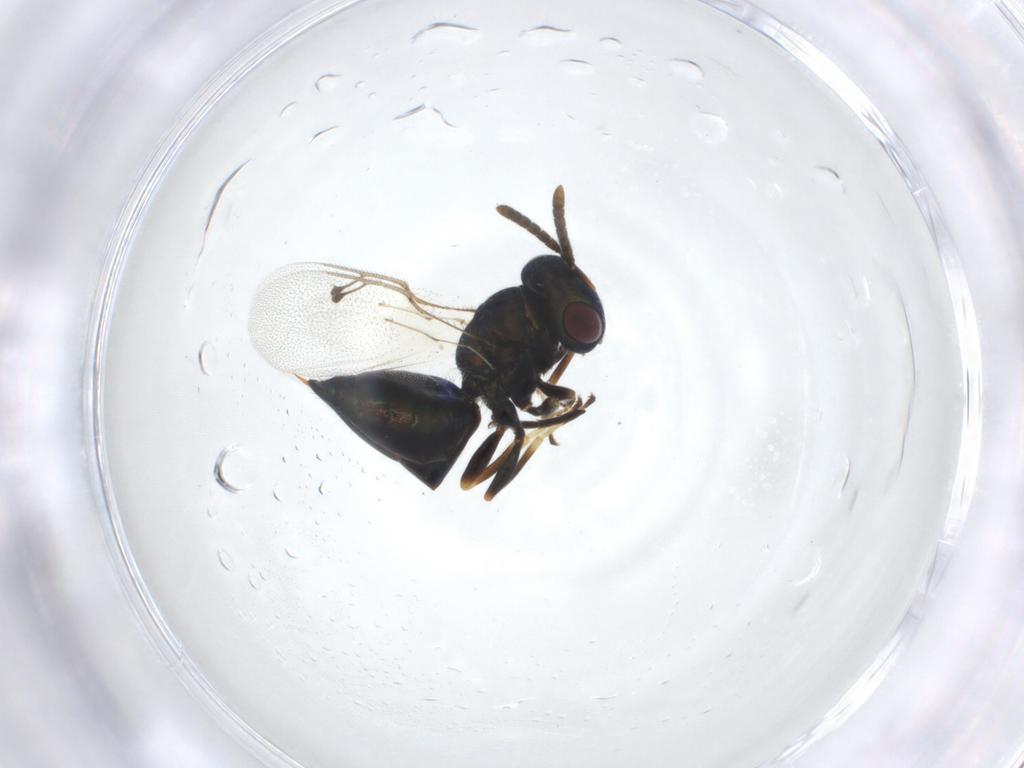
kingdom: Animalia
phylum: Arthropoda
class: Insecta
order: Hymenoptera
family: Pteromalidae
